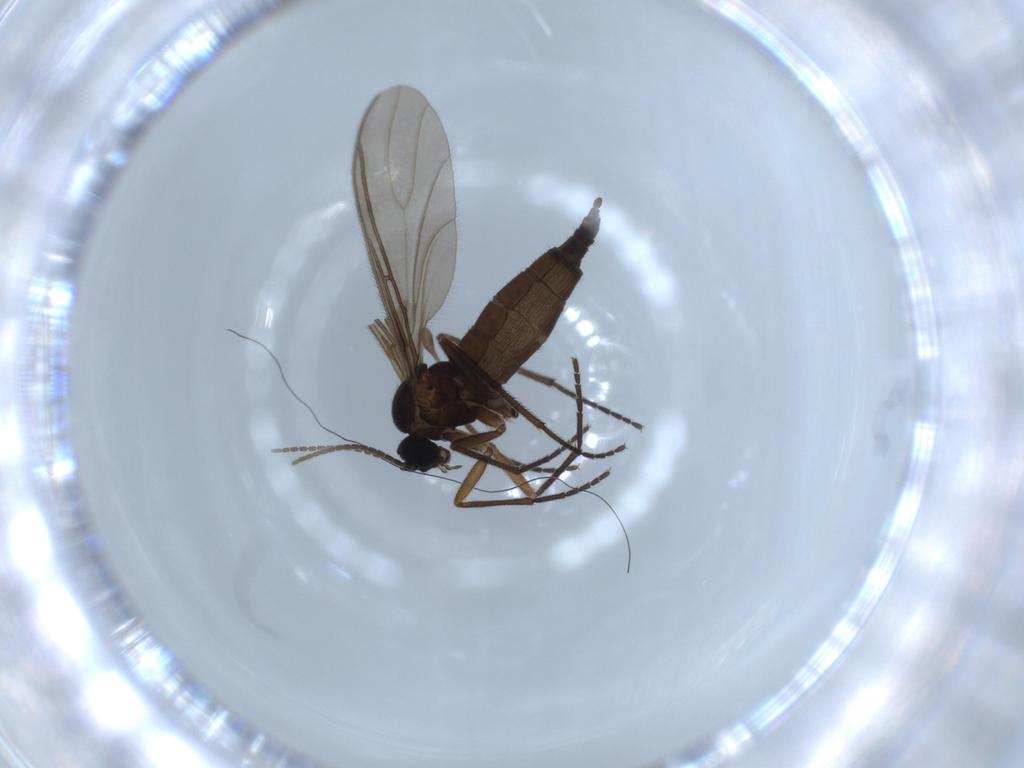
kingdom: Animalia
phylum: Arthropoda
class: Insecta
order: Diptera
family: Sciaridae
